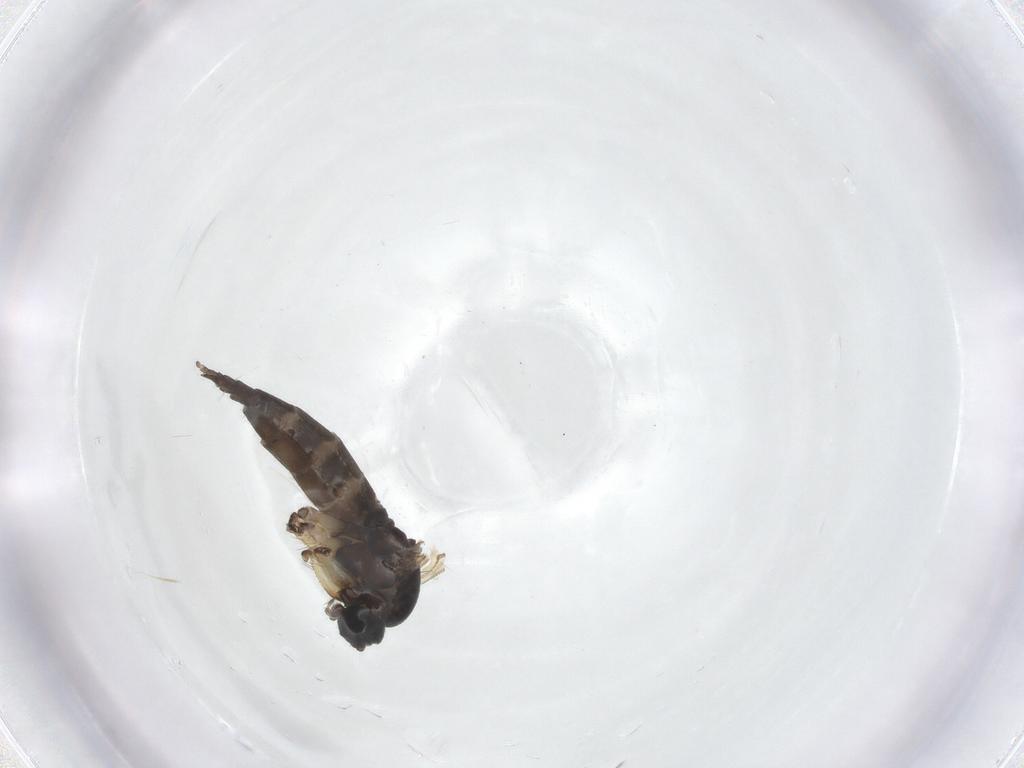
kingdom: Animalia
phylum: Arthropoda
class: Insecta
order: Diptera
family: Sciaridae
